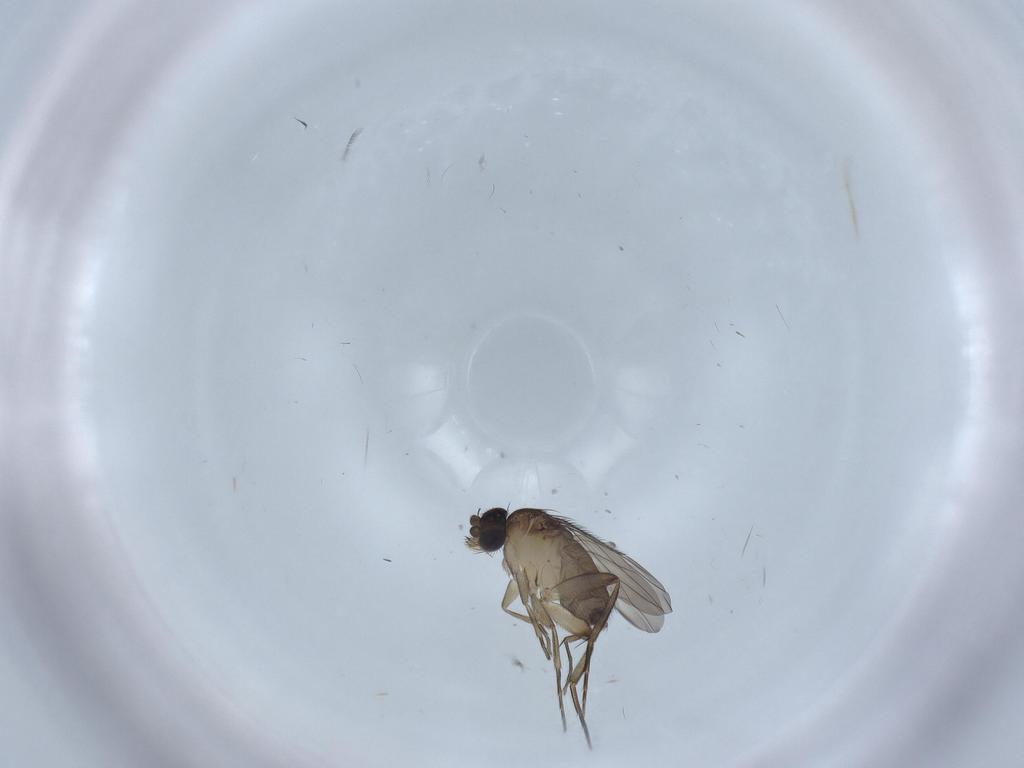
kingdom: Animalia
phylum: Arthropoda
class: Insecta
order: Diptera
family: Phoridae
